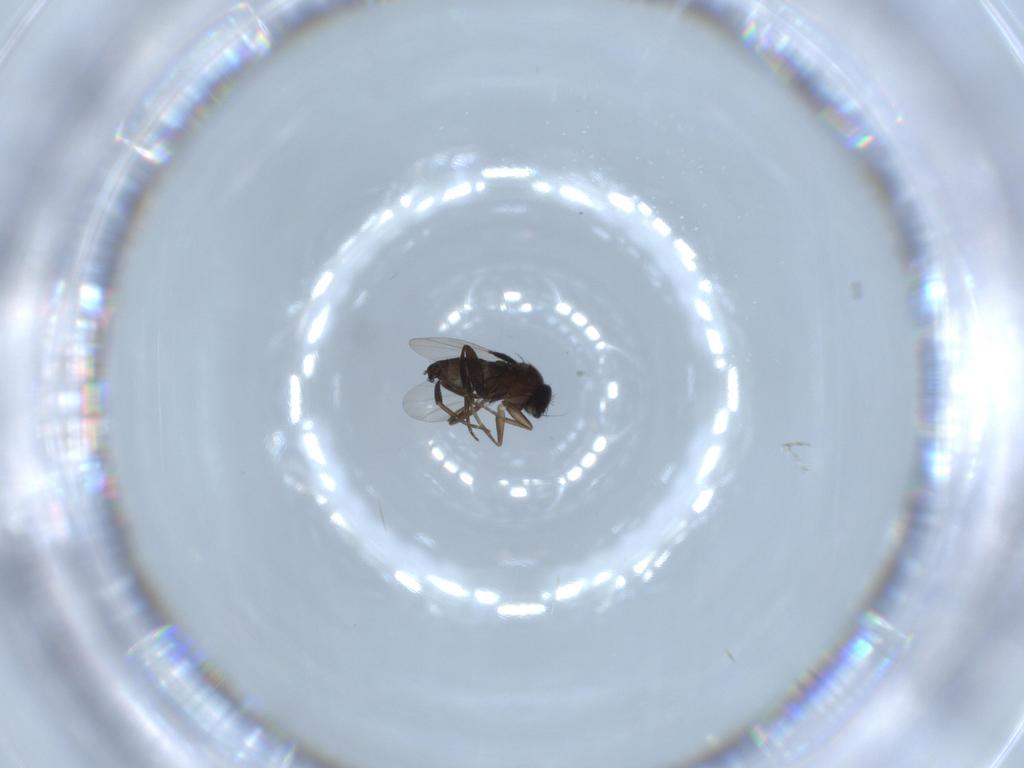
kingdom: Animalia
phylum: Arthropoda
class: Insecta
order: Diptera
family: Phoridae
